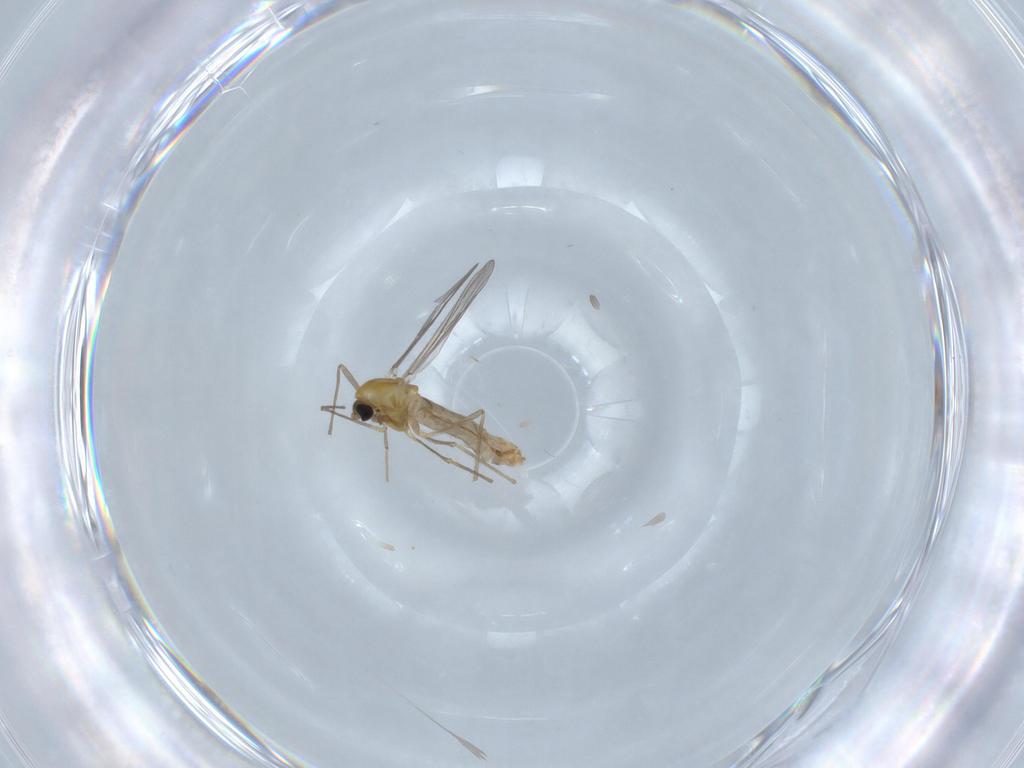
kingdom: Animalia
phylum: Arthropoda
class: Insecta
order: Diptera
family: Chironomidae
